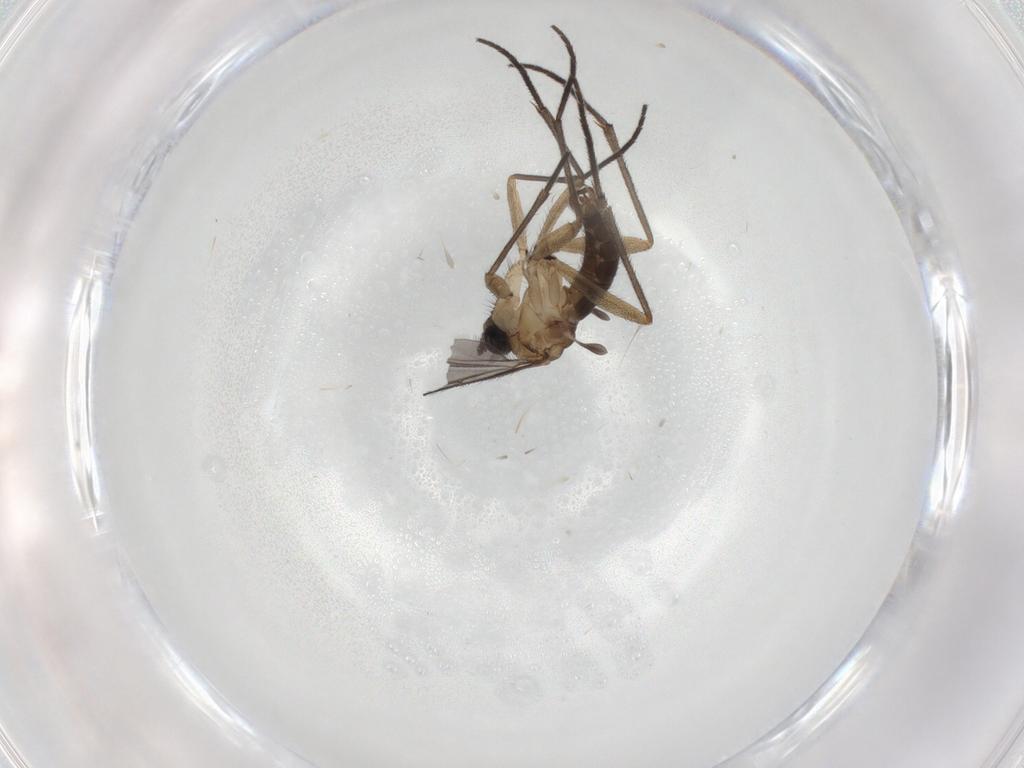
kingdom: Animalia
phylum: Arthropoda
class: Insecta
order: Diptera
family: Sciaridae
